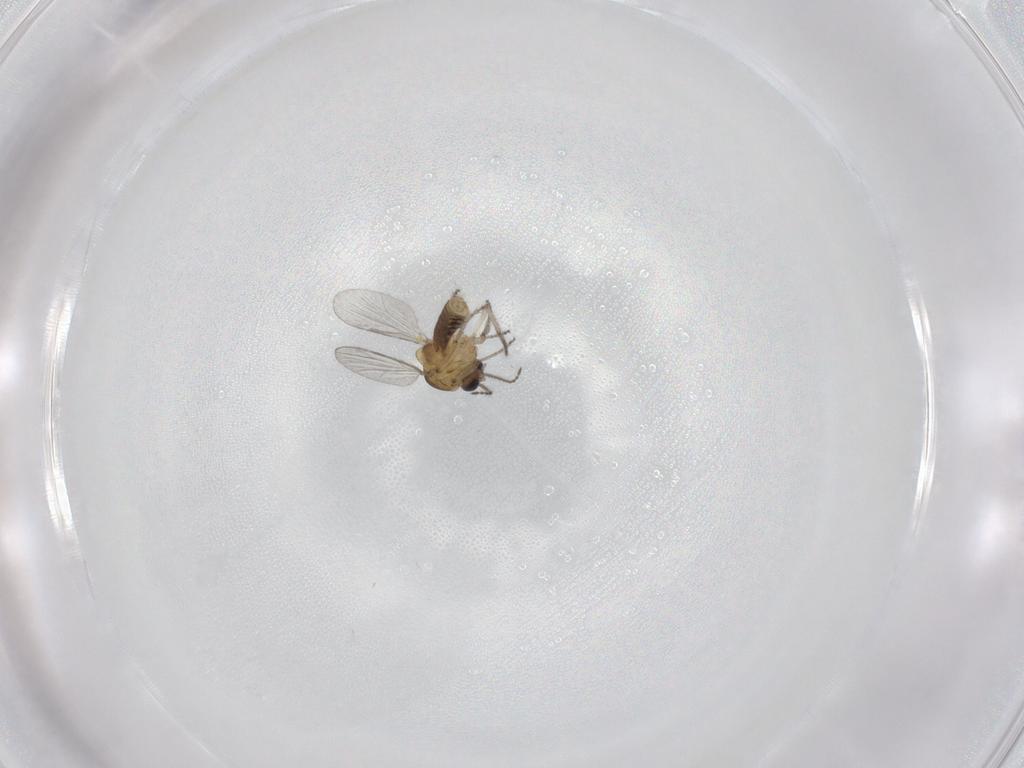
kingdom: Animalia
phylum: Arthropoda
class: Insecta
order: Diptera
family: Ceratopogonidae
